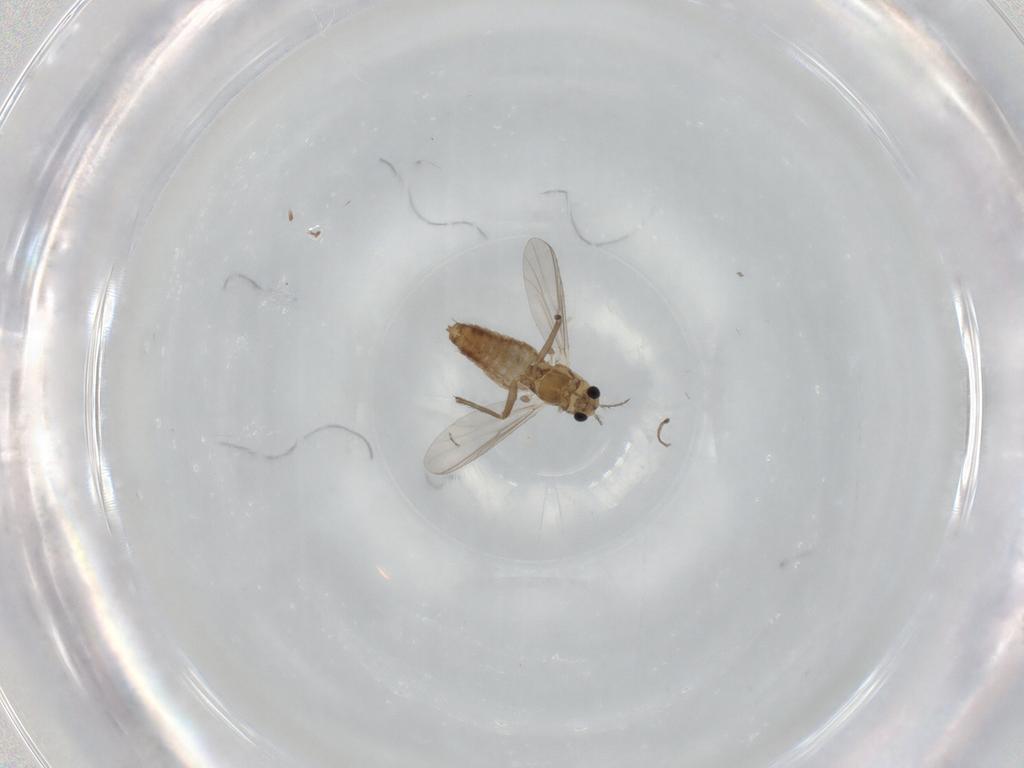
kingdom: Animalia
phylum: Arthropoda
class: Insecta
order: Diptera
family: Chironomidae
